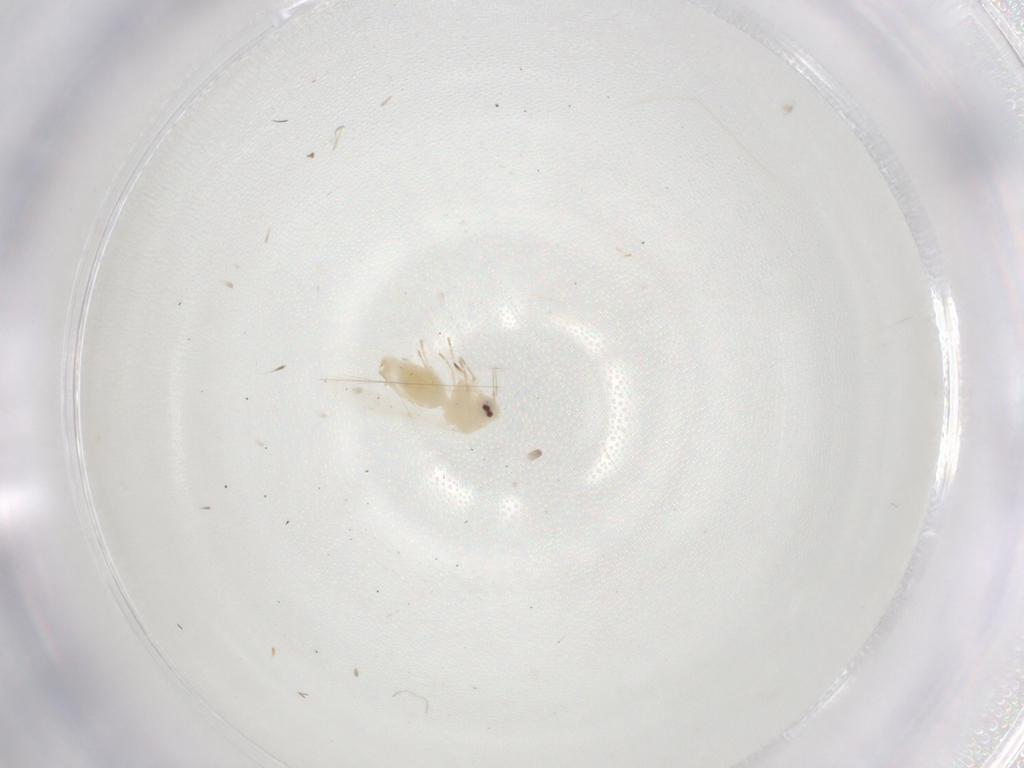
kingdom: Animalia
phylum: Arthropoda
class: Insecta
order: Hemiptera
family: Aleyrodidae
